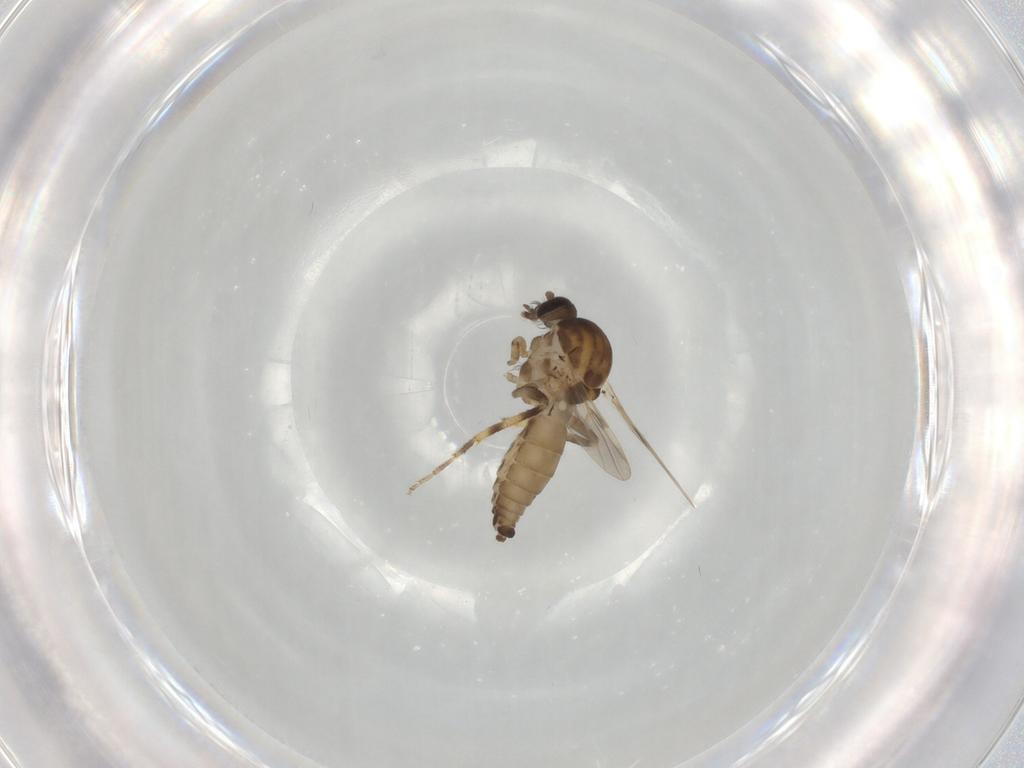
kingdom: Animalia
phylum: Arthropoda
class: Insecta
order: Diptera
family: Ceratopogonidae
